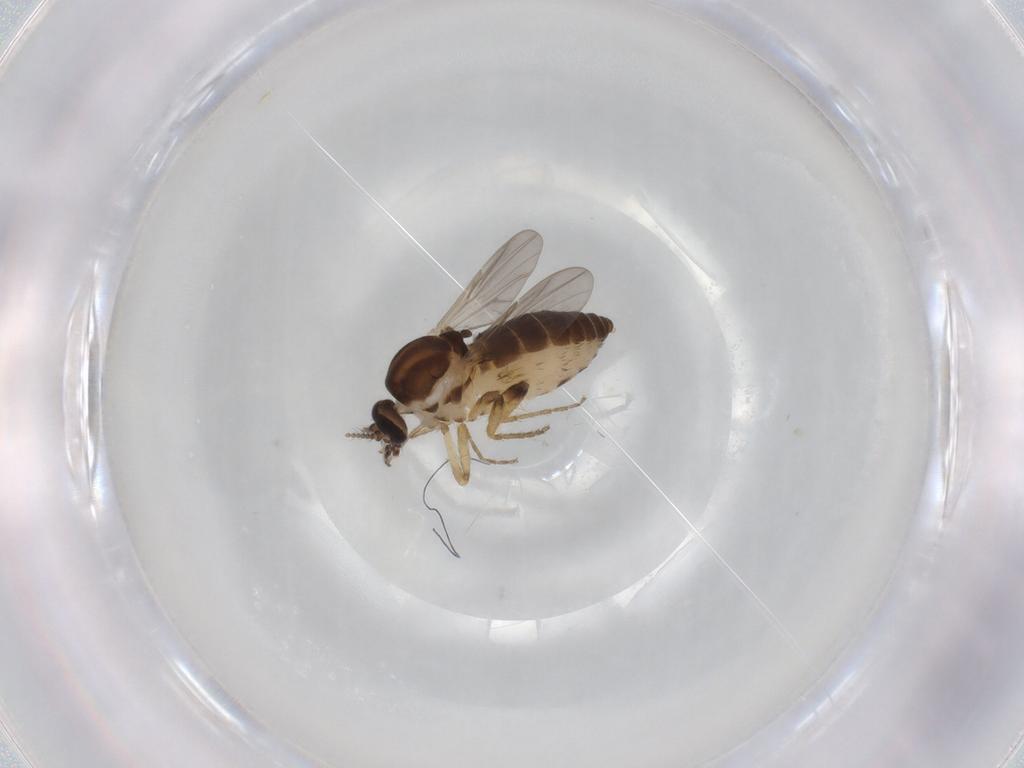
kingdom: Animalia
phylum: Arthropoda
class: Insecta
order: Diptera
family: Ceratopogonidae
